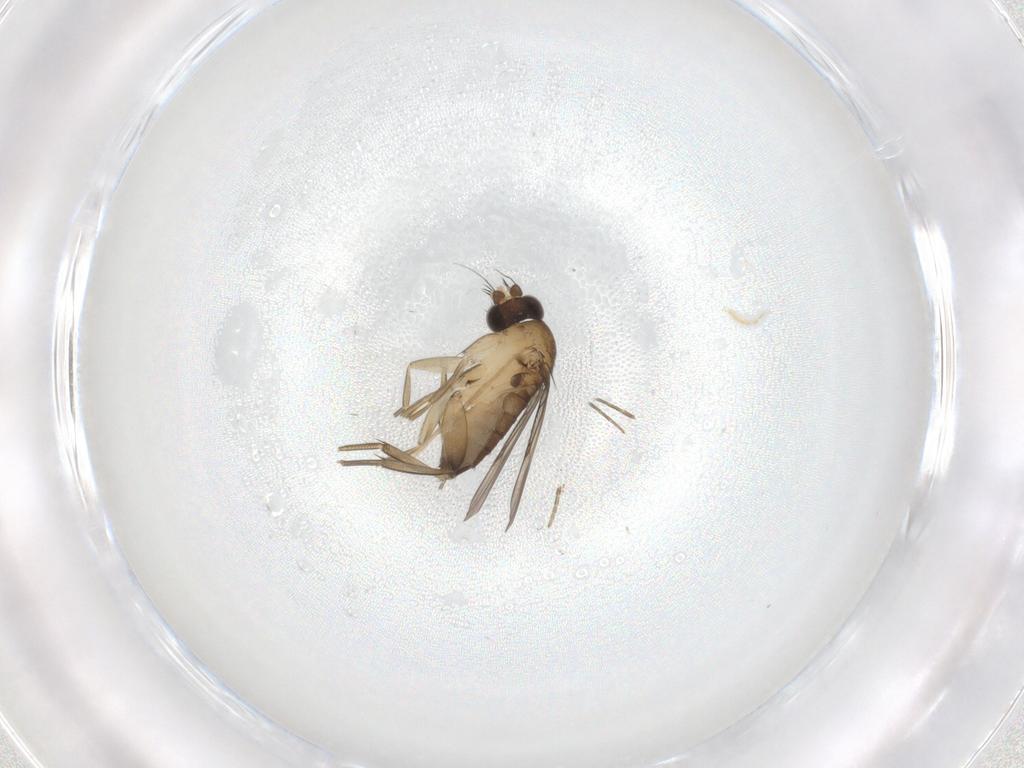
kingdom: Animalia
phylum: Arthropoda
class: Insecta
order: Diptera
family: Phoridae
